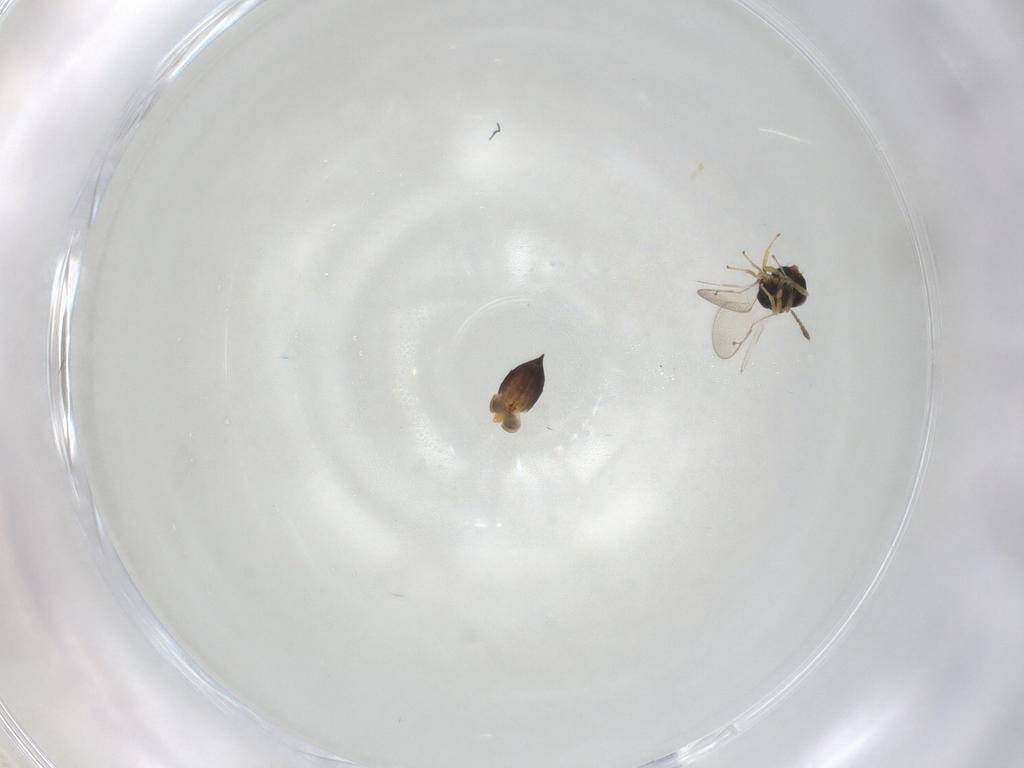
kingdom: Animalia
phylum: Arthropoda
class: Insecta
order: Hymenoptera
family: Pteromalidae
